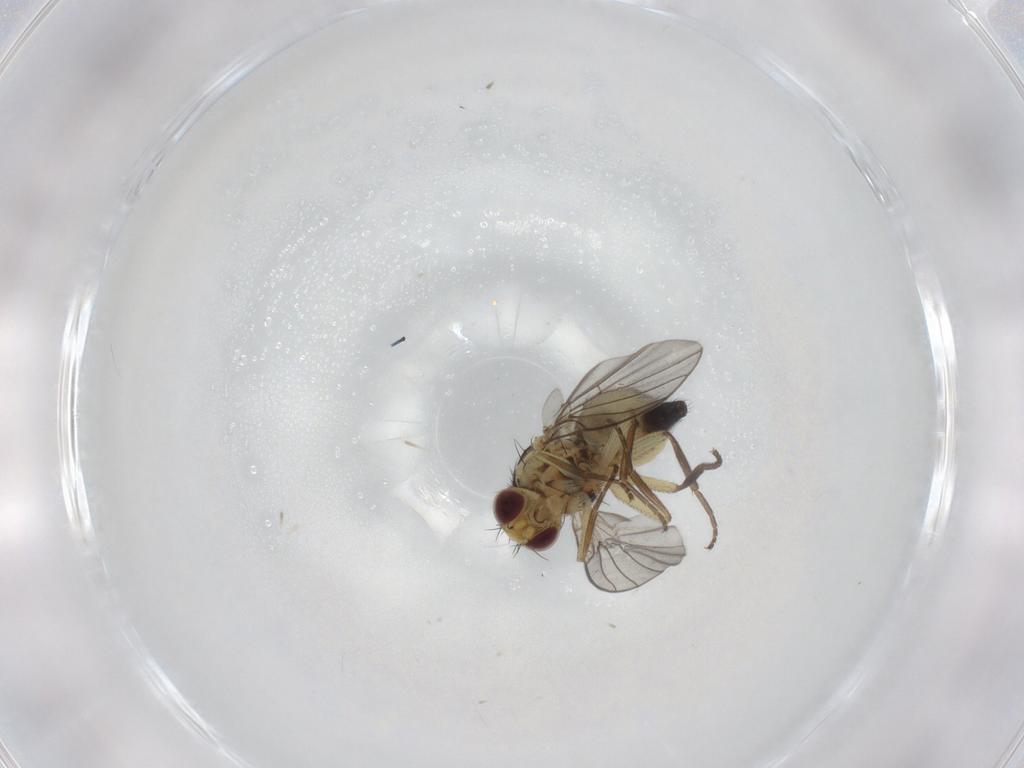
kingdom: Animalia
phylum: Arthropoda
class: Insecta
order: Diptera
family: Agromyzidae
